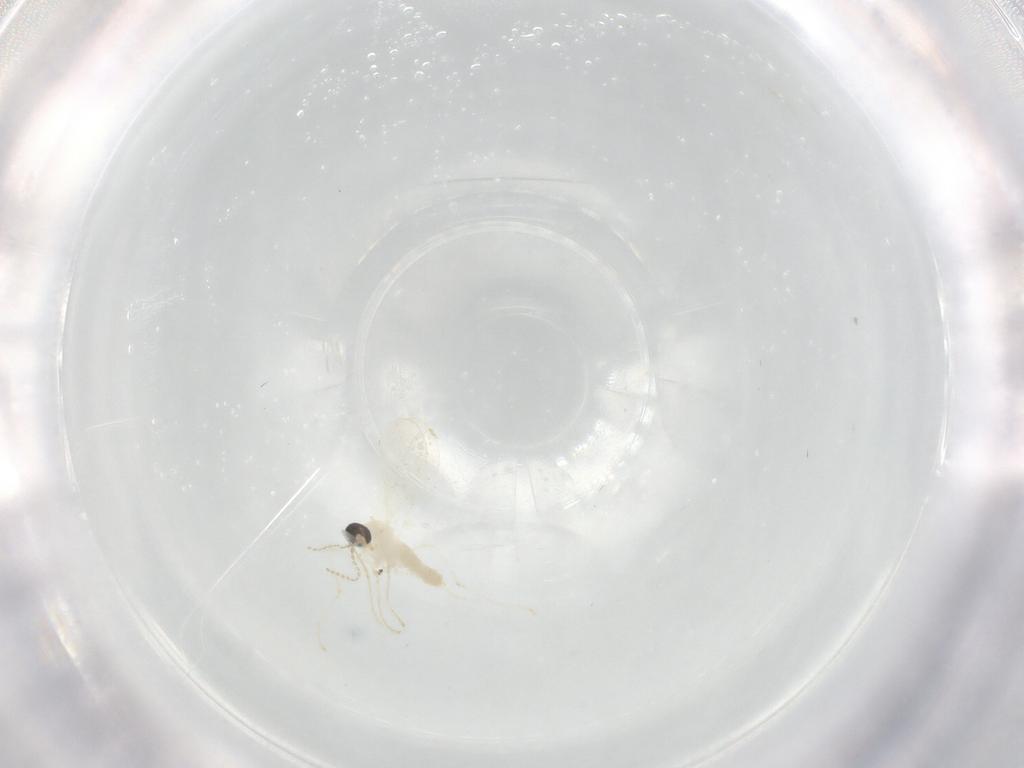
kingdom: Animalia
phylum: Arthropoda
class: Insecta
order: Diptera
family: Cecidomyiidae
